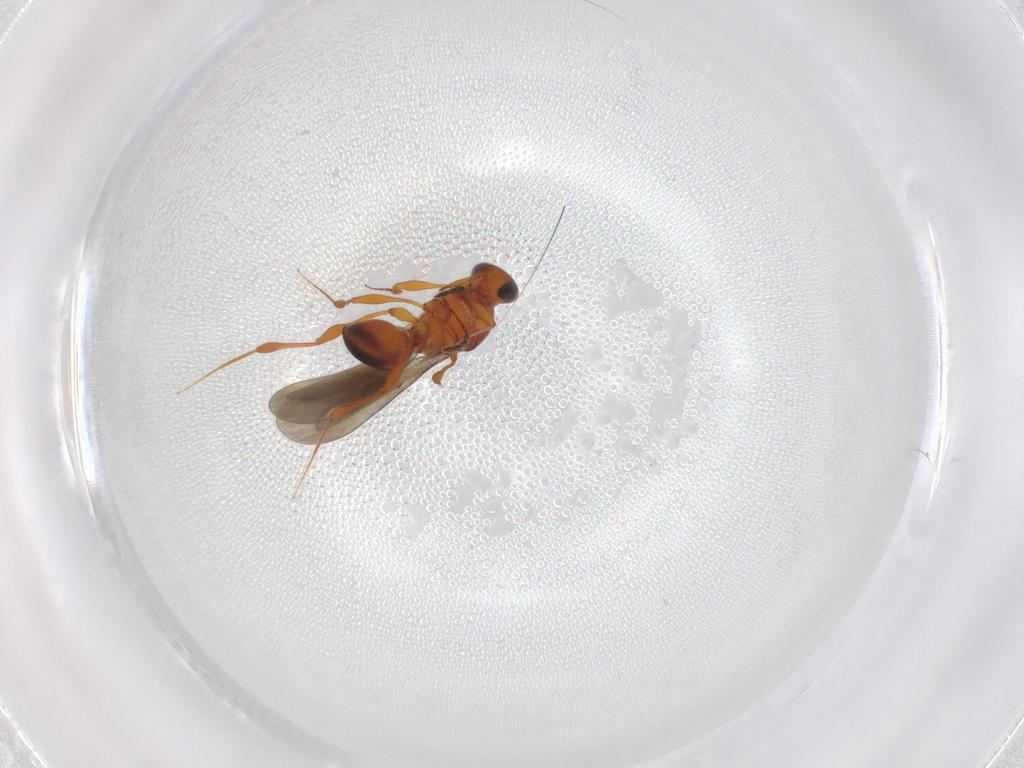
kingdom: Animalia
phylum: Arthropoda
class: Insecta
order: Hymenoptera
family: Platygastridae
